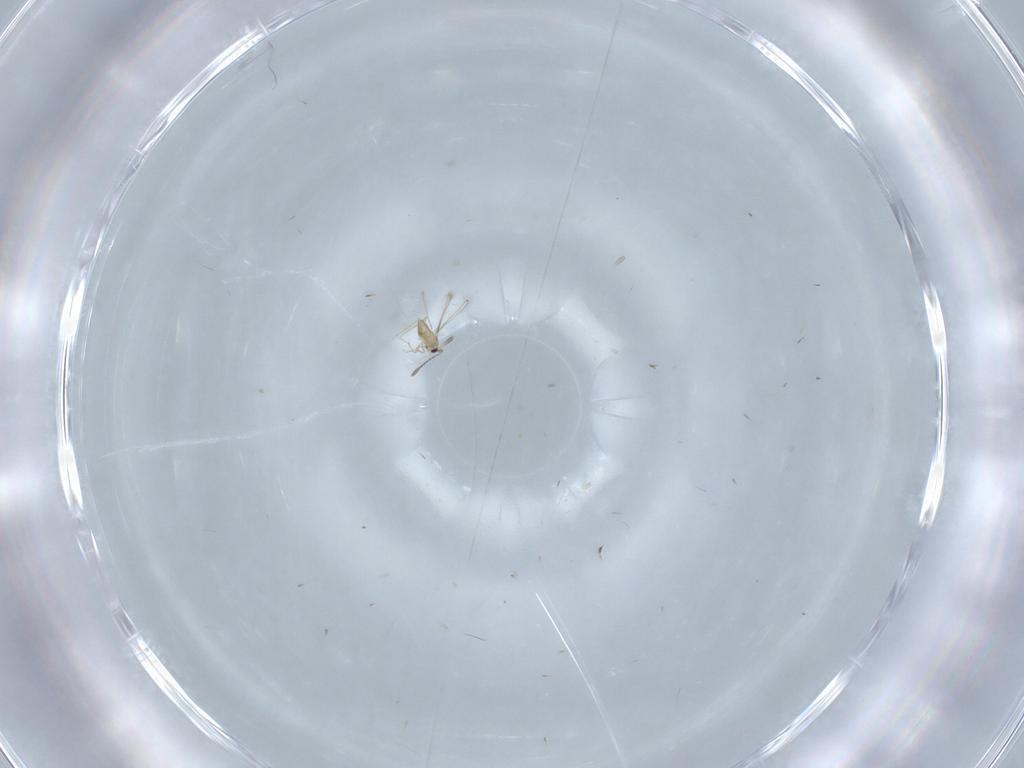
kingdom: Animalia
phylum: Arthropoda
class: Insecta
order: Hymenoptera
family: Mymaridae
